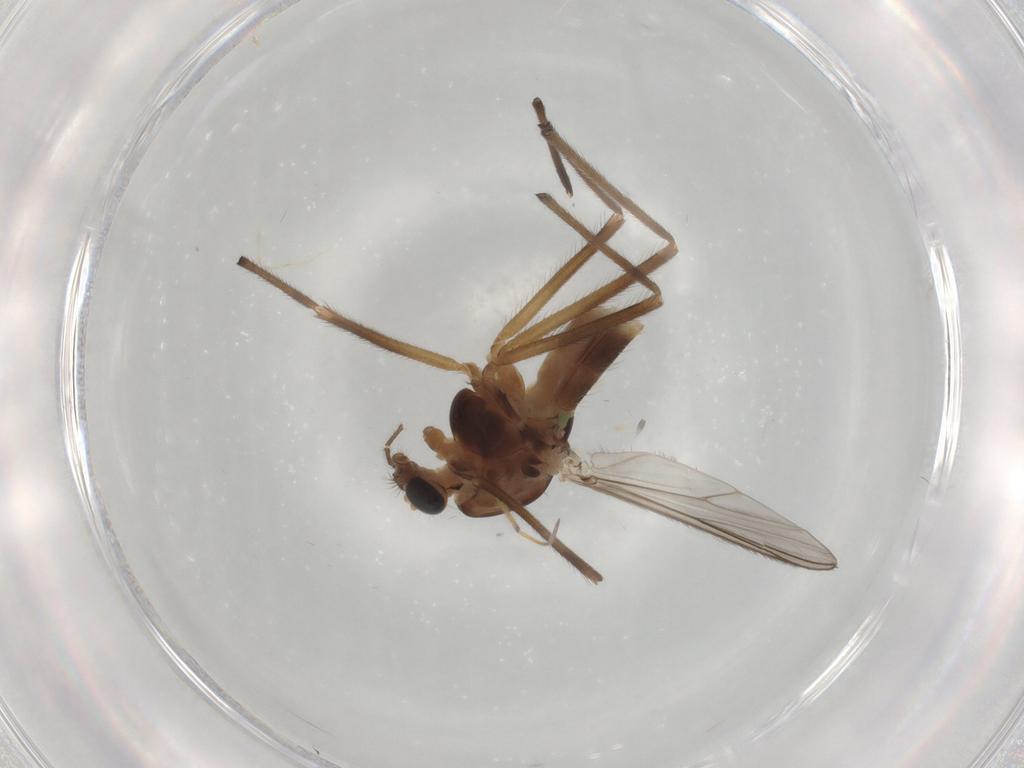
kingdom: Animalia
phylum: Arthropoda
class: Insecta
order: Diptera
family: Chironomidae
